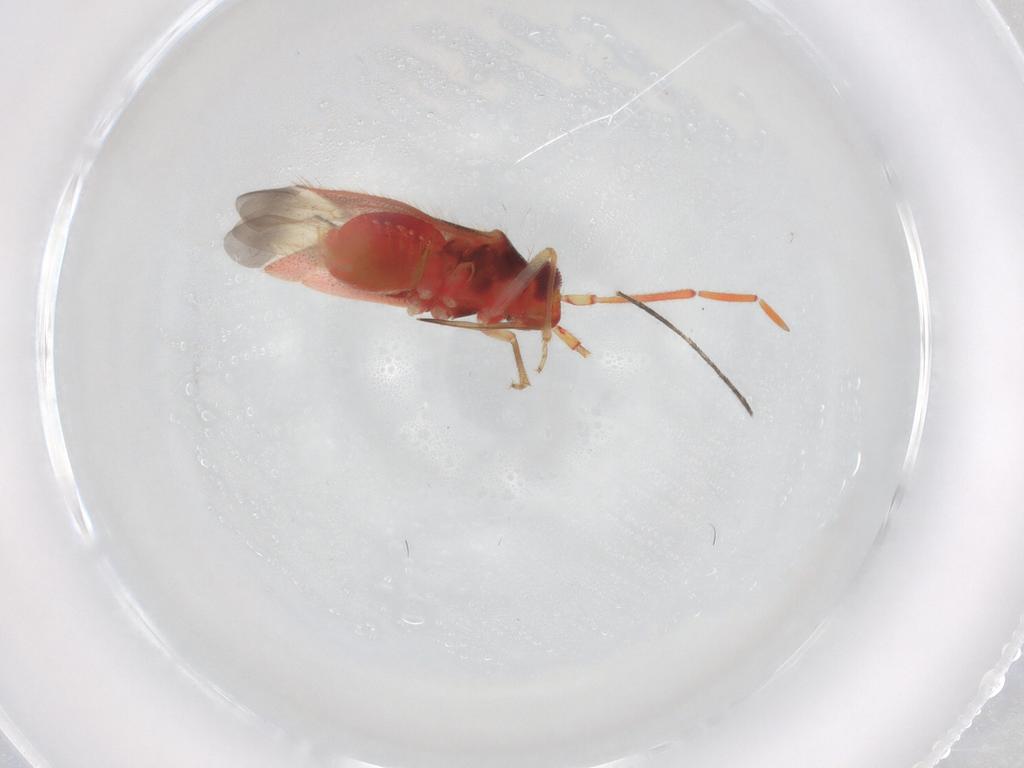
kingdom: Animalia
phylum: Arthropoda
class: Insecta
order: Hemiptera
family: Miridae
